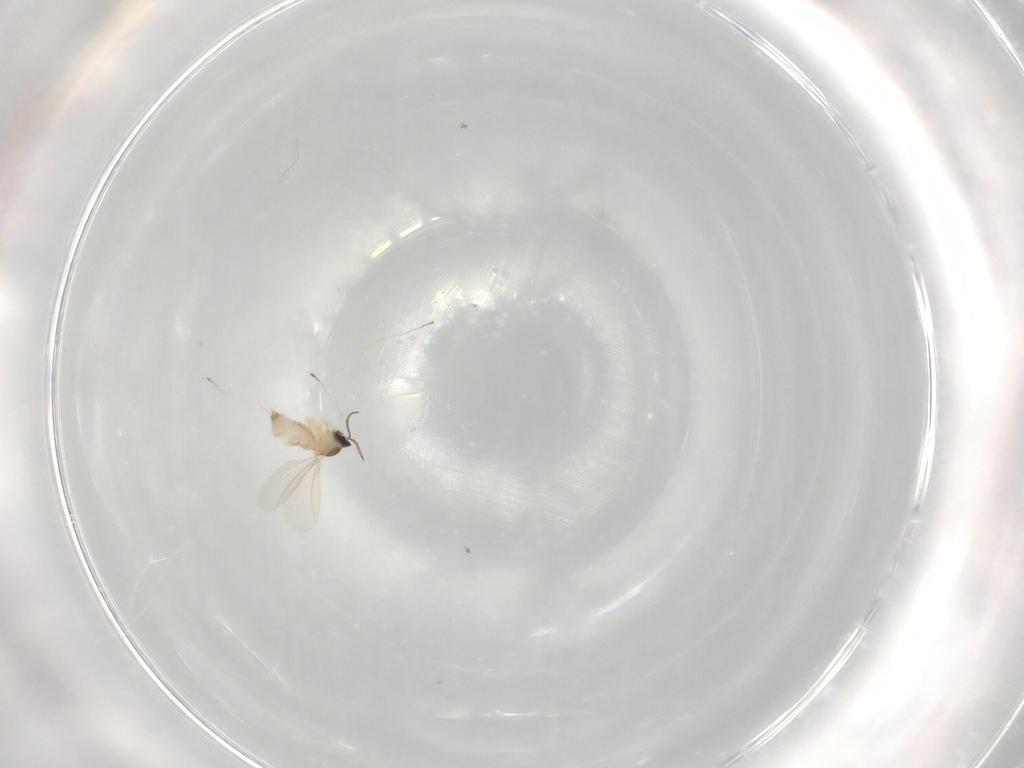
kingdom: Animalia
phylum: Arthropoda
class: Insecta
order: Diptera
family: Cecidomyiidae
